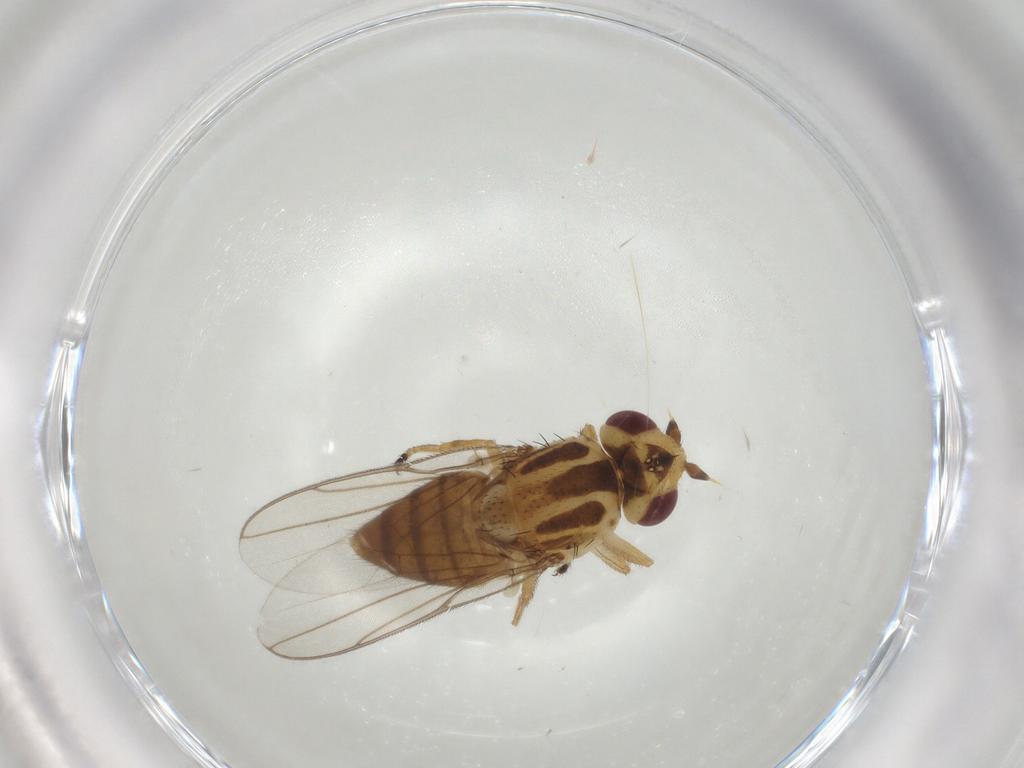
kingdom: Animalia
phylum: Arthropoda
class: Insecta
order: Diptera
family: Chloropidae
